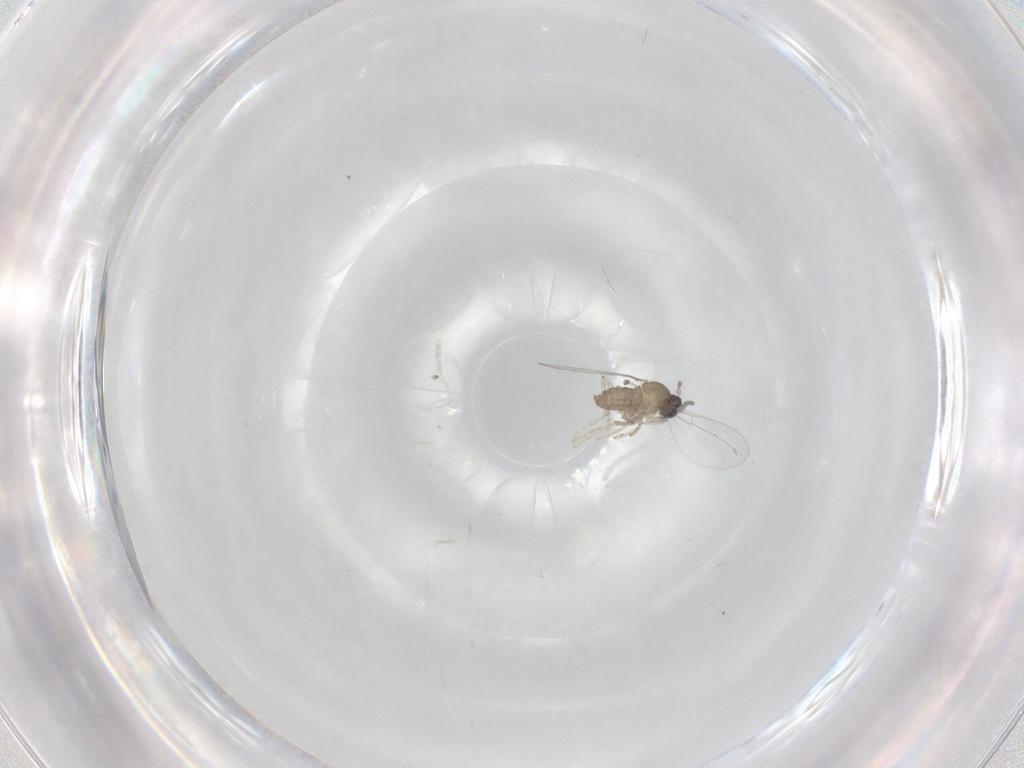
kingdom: Animalia
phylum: Arthropoda
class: Insecta
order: Diptera
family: Cecidomyiidae
